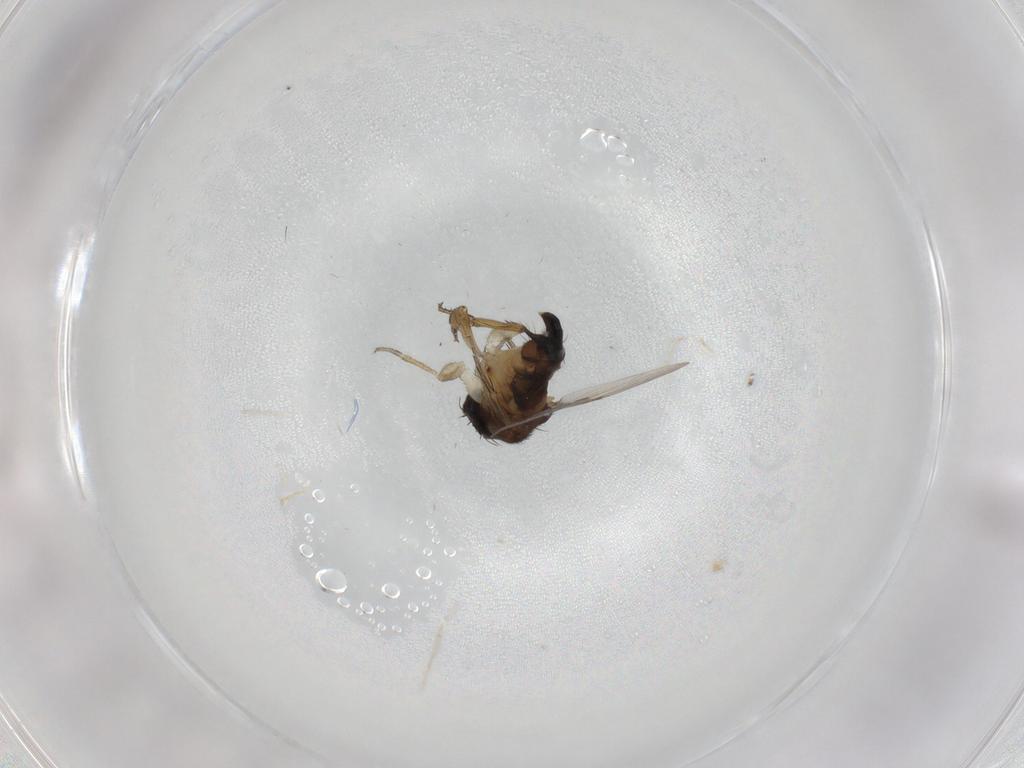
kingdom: Animalia
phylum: Arthropoda
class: Insecta
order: Diptera
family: Phoridae
